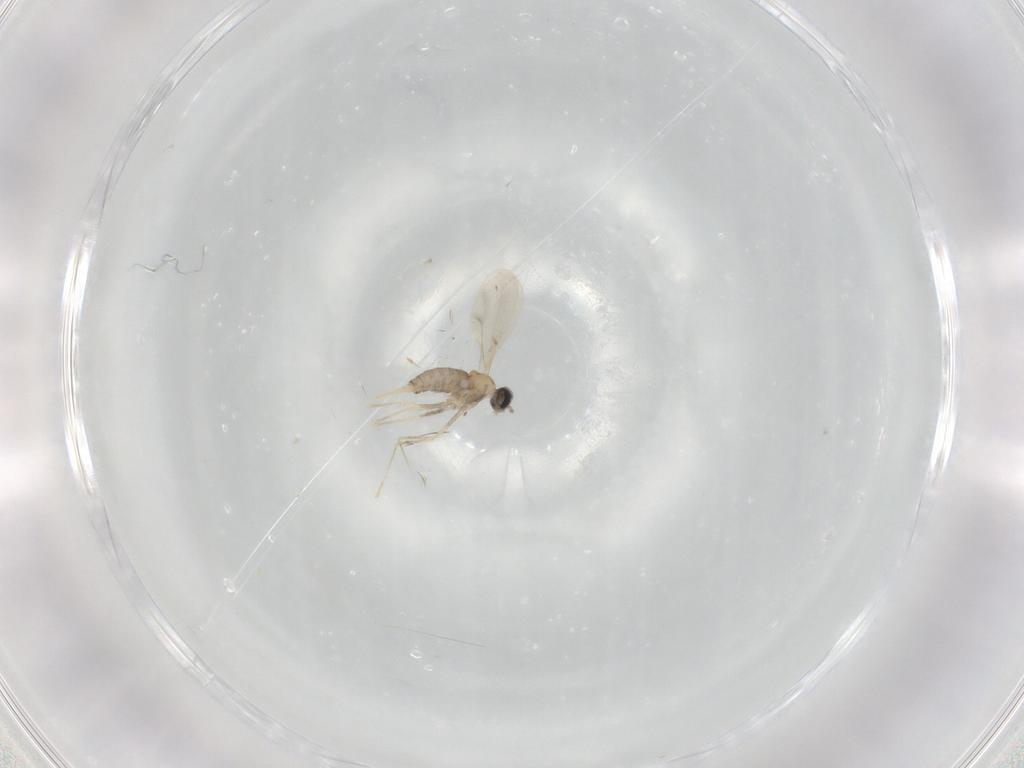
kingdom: Animalia
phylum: Arthropoda
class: Insecta
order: Diptera
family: Cecidomyiidae
